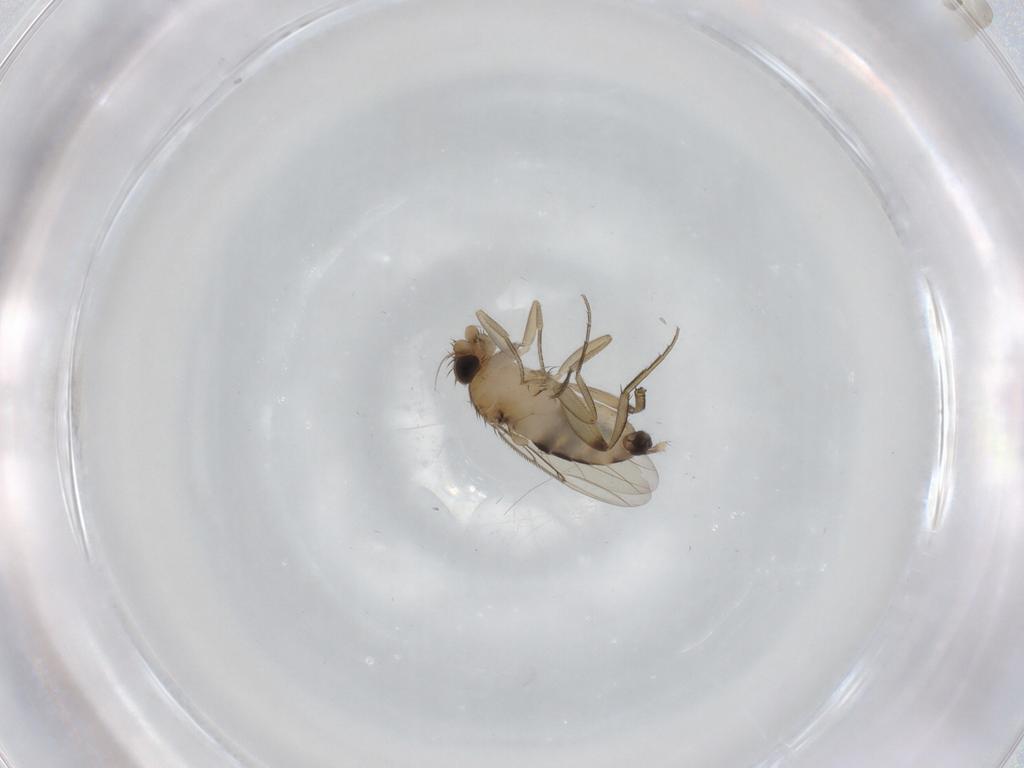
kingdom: Animalia
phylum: Arthropoda
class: Insecta
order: Diptera
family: Phoridae
